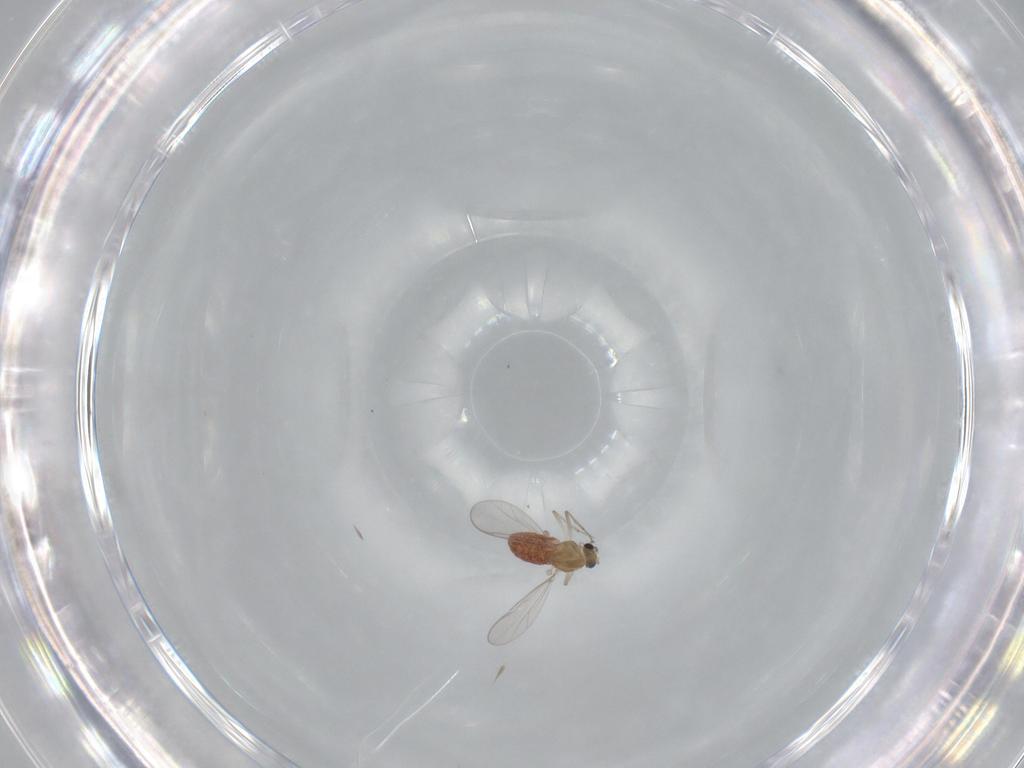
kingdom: Animalia
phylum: Arthropoda
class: Insecta
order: Diptera
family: Chironomidae
